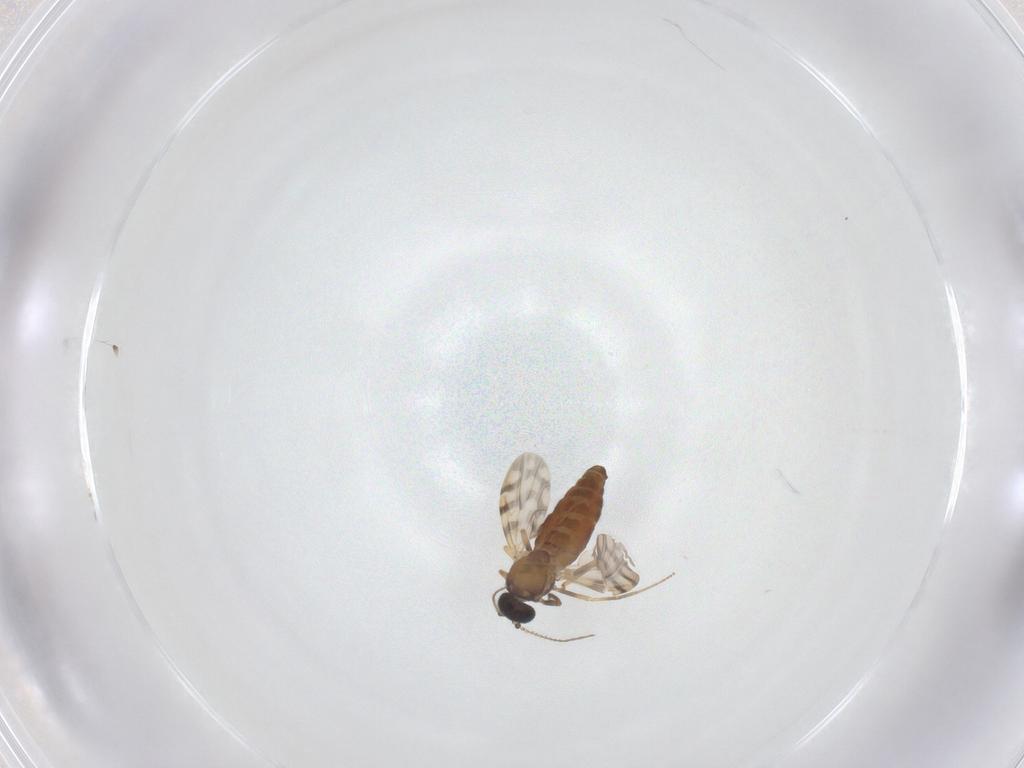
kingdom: Animalia
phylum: Arthropoda
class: Insecta
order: Diptera
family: Ceratopogonidae
